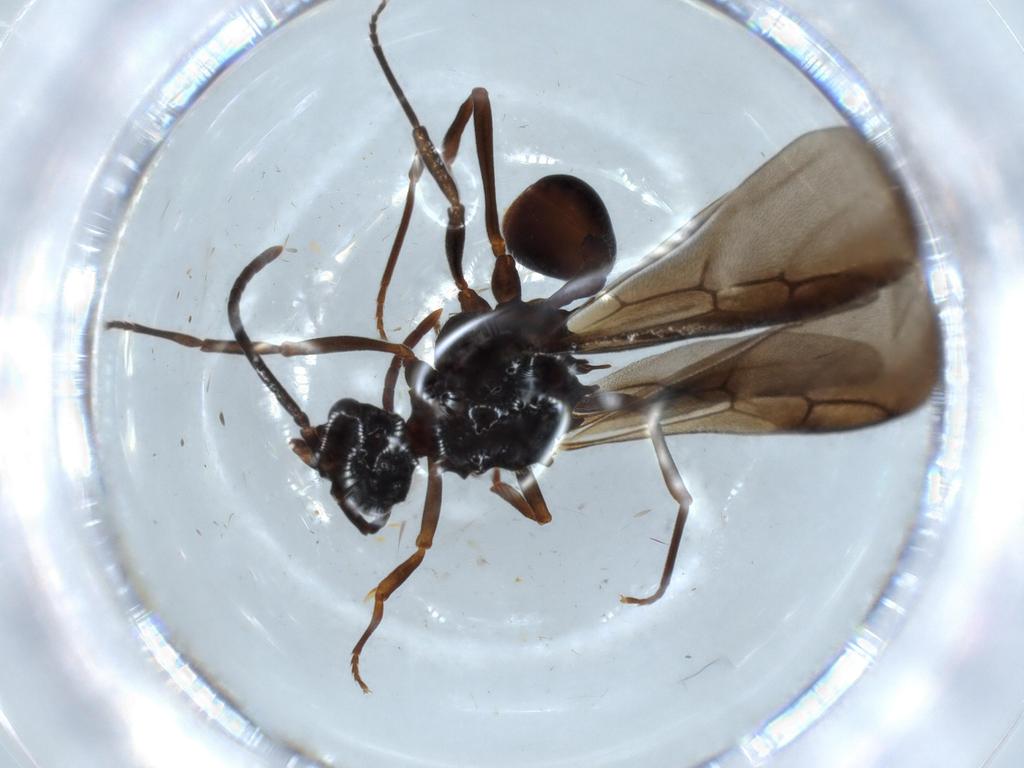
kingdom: Animalia
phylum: Arthropoda
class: Insecta
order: Hymenoptera
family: Formicidae
